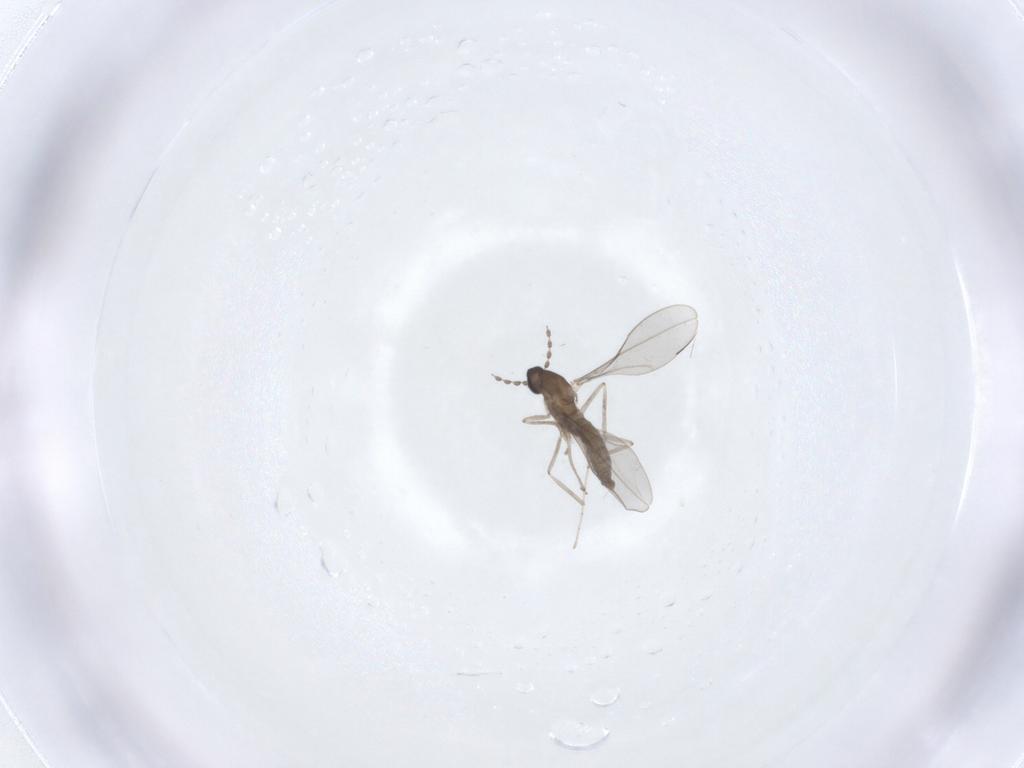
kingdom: Animalia
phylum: Arthropoda
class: Insecta
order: Diptera
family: Cecidomyiidae
